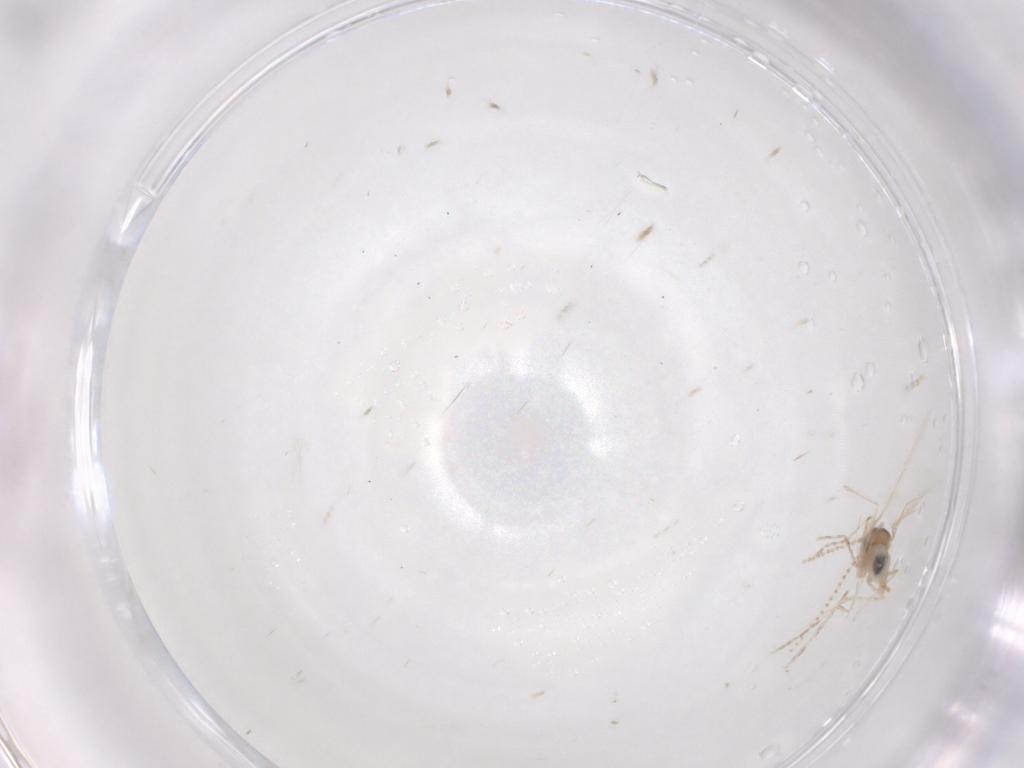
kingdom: Animalia
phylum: Arthropoda
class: Insecta
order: Diptera
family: Cecidomyiidae
